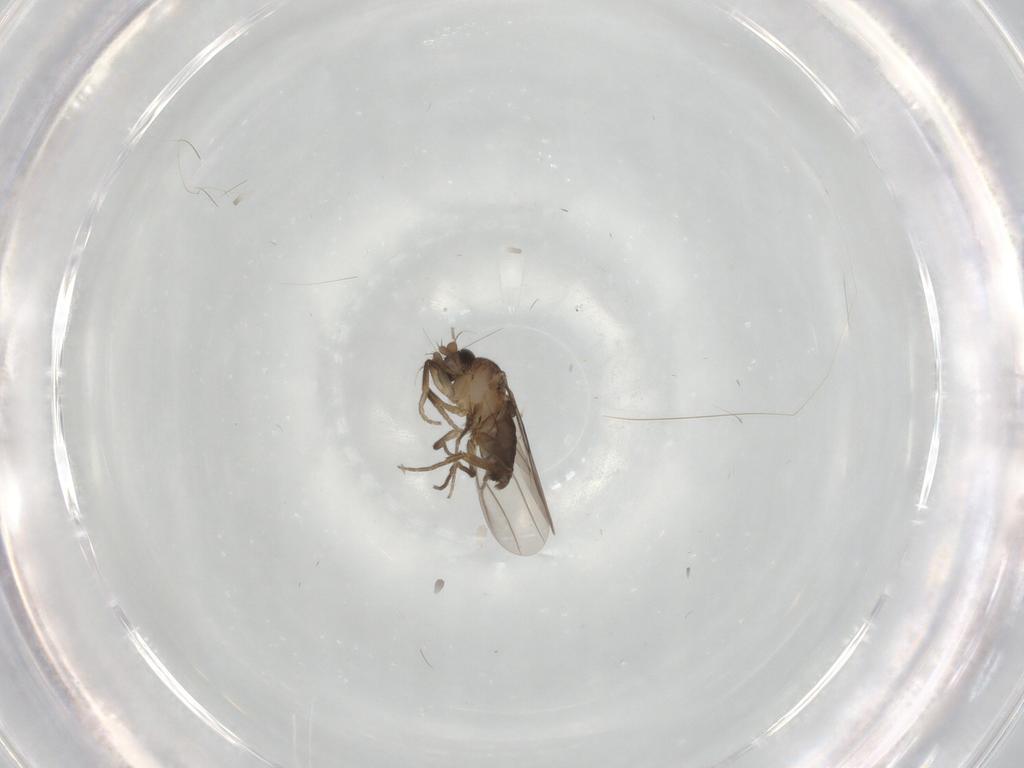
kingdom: Animalia
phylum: Arthropoda
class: Insecta
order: Diptera
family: Phoridae
